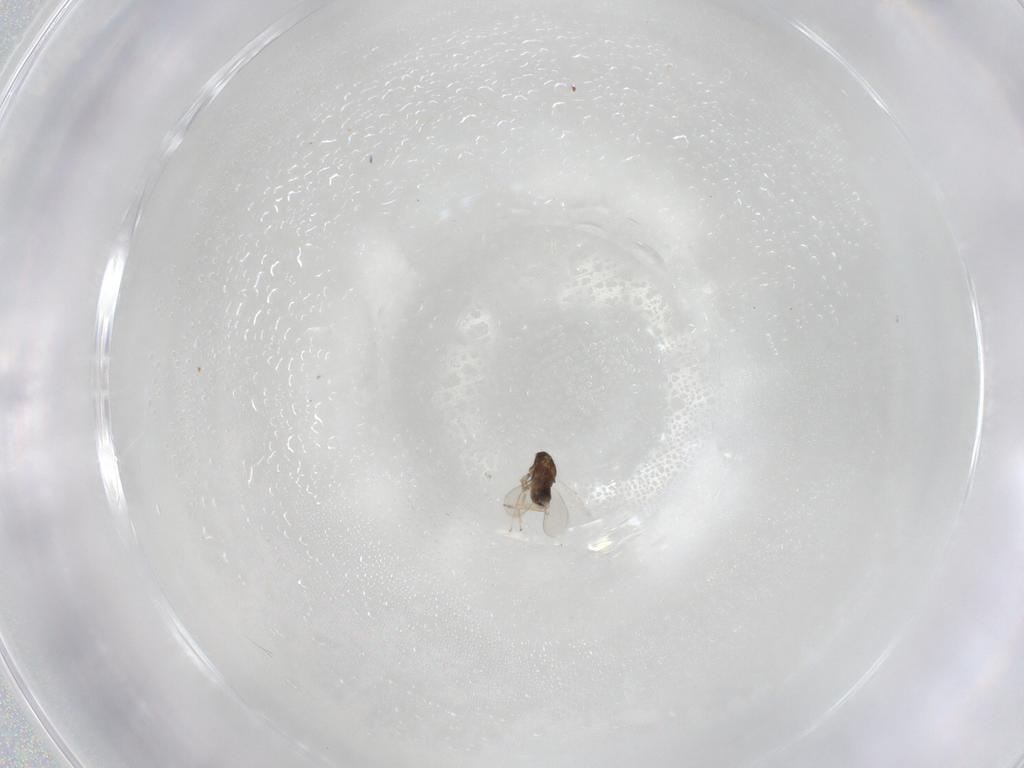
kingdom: Animalia
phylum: Arthropoda
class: Insecta
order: Hymenoptera
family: Aphelinidae
